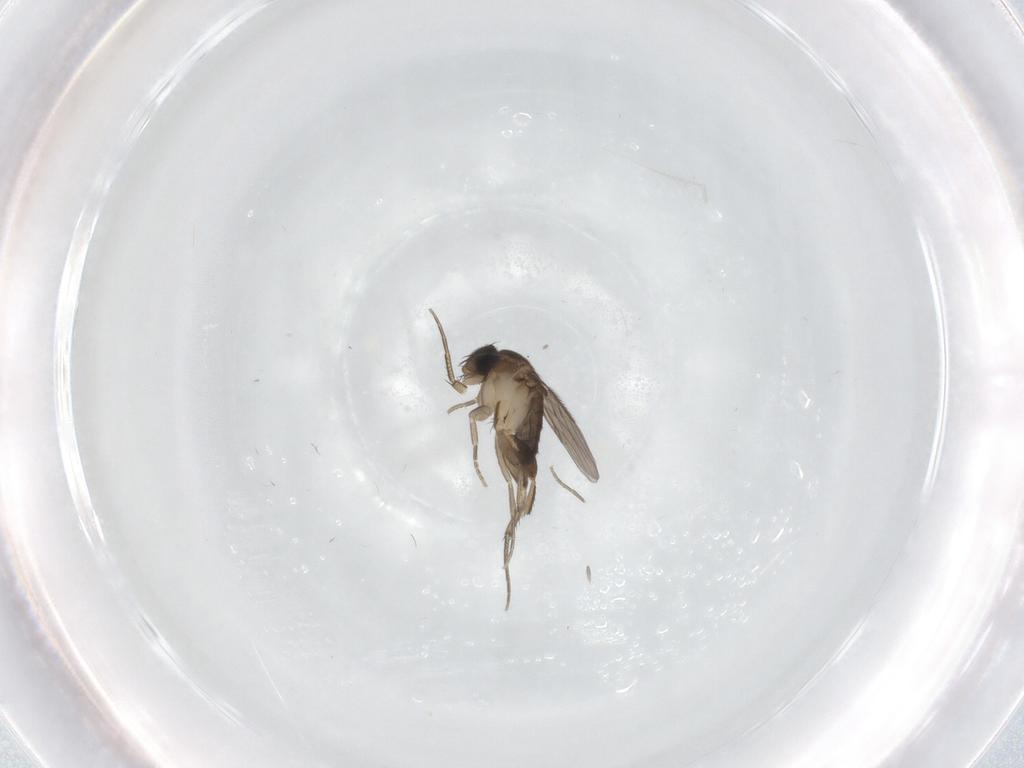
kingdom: Animalia
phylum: Arthropoda
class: Insecta
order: Diptera
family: Phoridae
